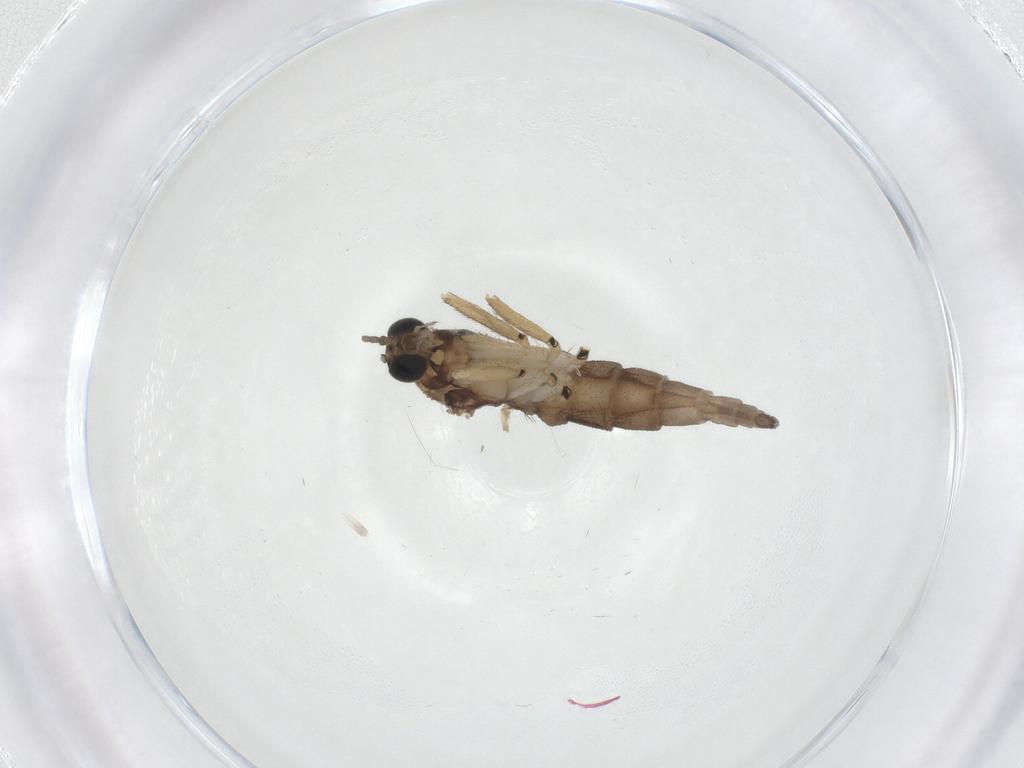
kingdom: Animalia
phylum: Arthropoda
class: Insecta
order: Diptera
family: Sciaridae
